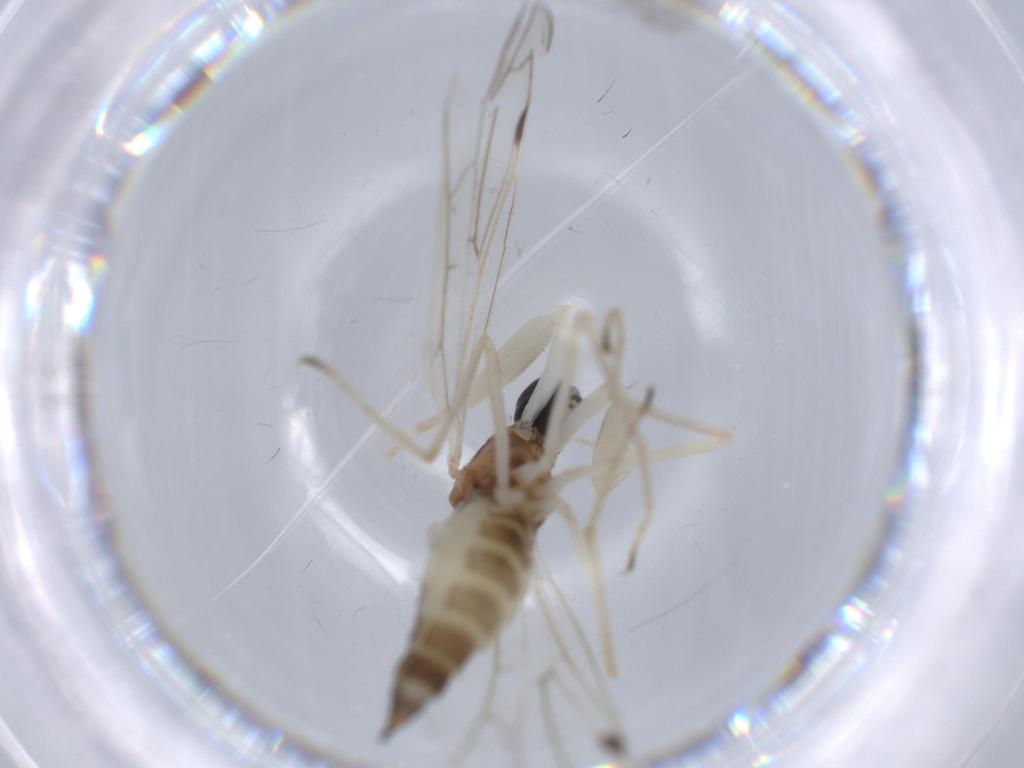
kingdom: Animalia
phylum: Arthropoda
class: Insecta
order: Diptera
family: Empididae
